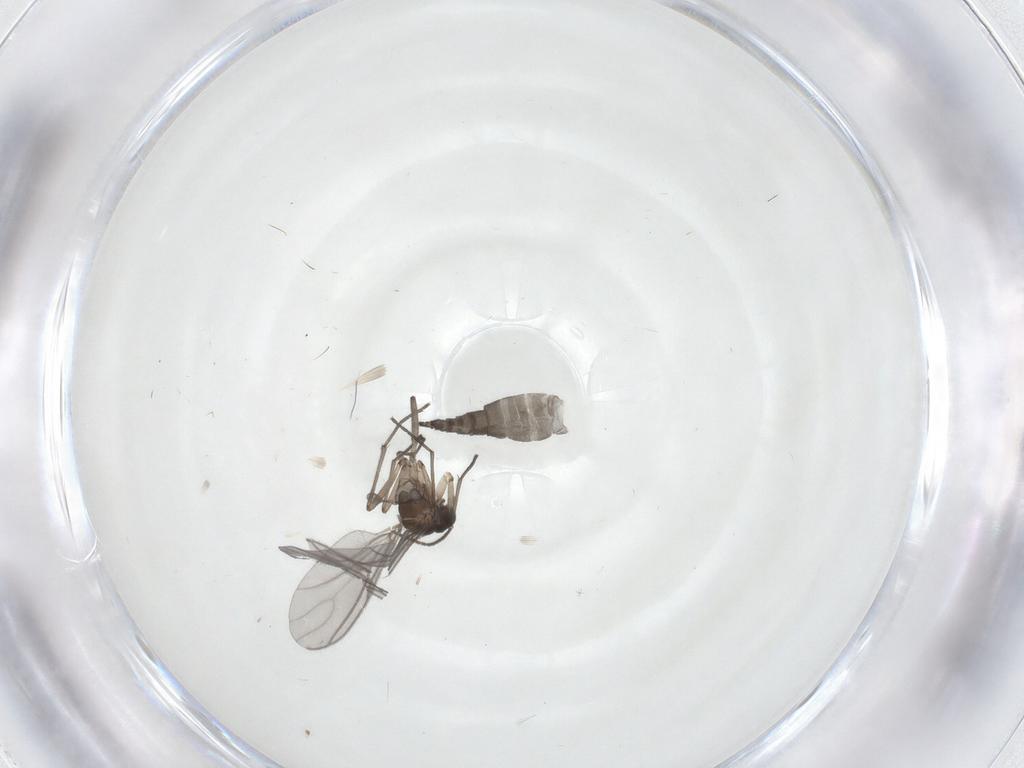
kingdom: Animalia
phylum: Arthropoda
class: Insecta
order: Diptera
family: Sciaridae
